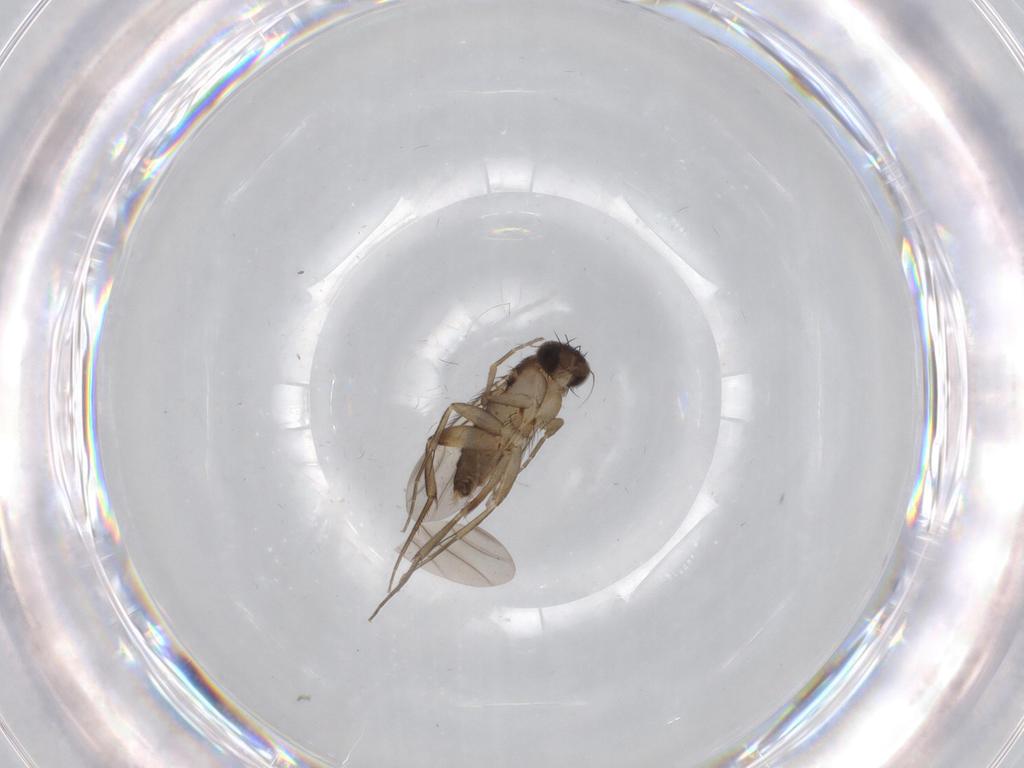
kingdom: Animalia
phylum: Arthropoda
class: Insecta
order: Diptera
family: Phoridae
